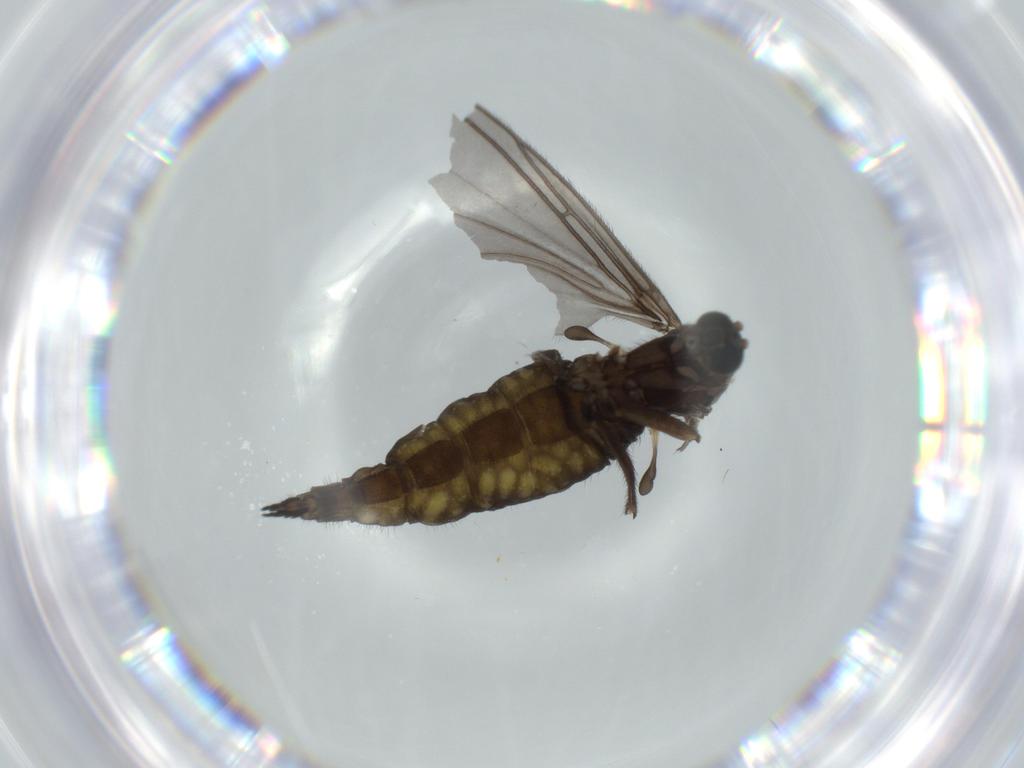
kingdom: Animalia
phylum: Arthropoda
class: Insecta
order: Diptera
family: Sciaridae
